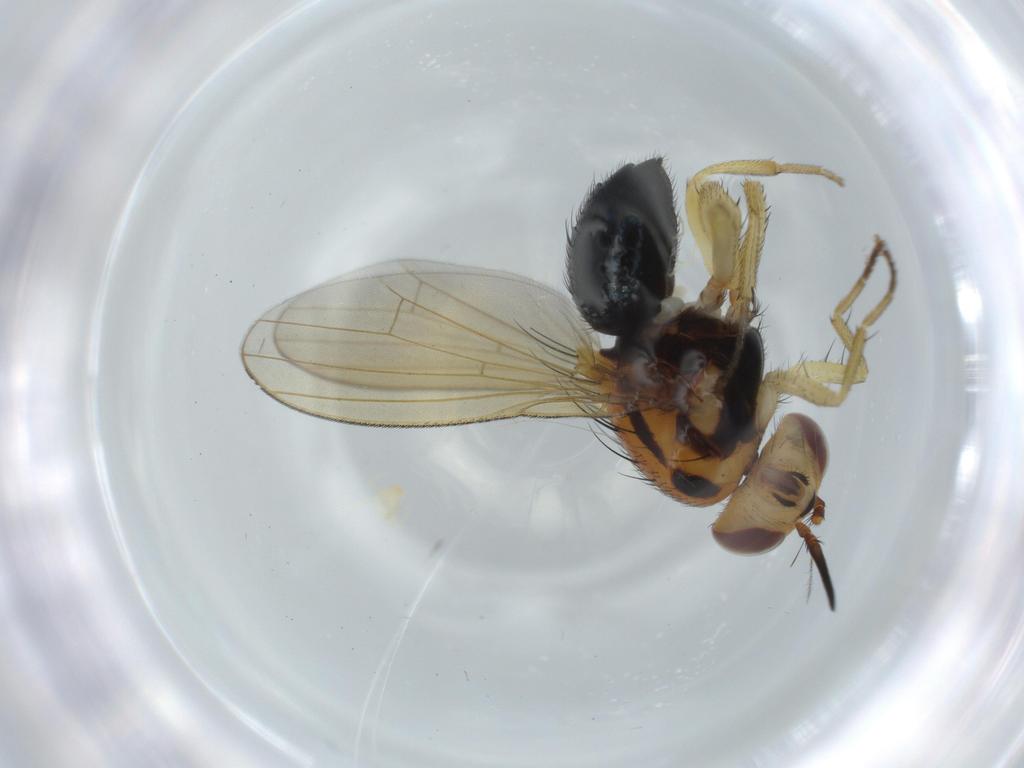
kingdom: Animalia
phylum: Arthropoda
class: Insecta
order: Diptera
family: Lauxaniidae
